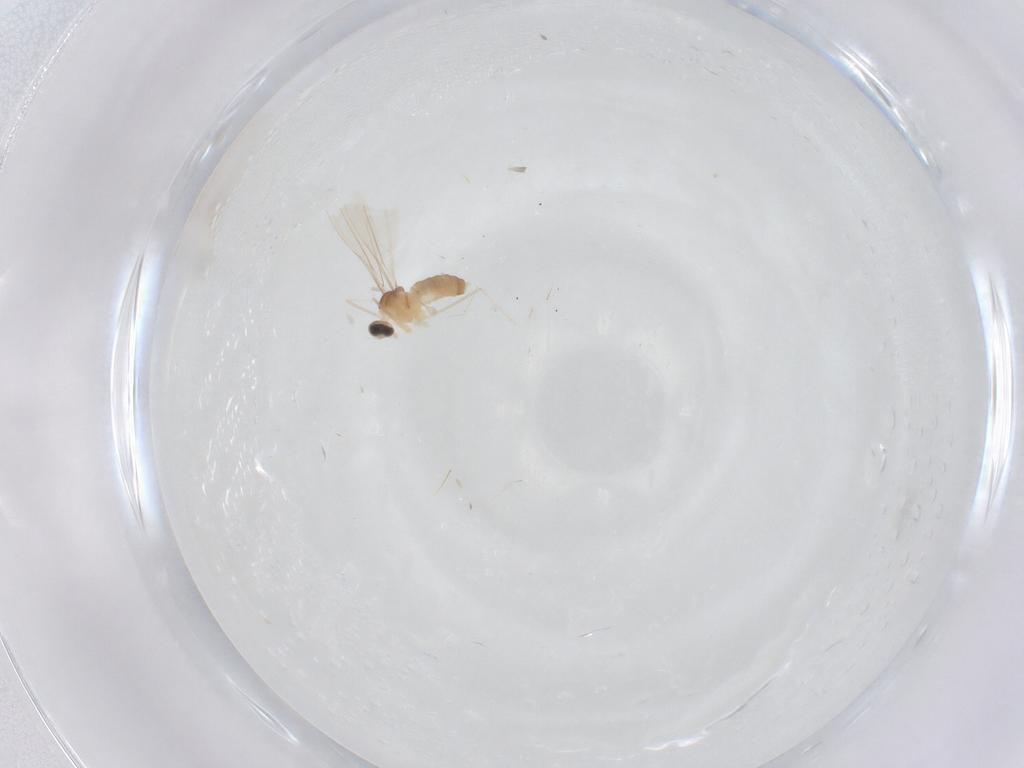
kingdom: Animalia
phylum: Arthropoda
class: Insecta
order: Diptera
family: Cecidomyiidae
